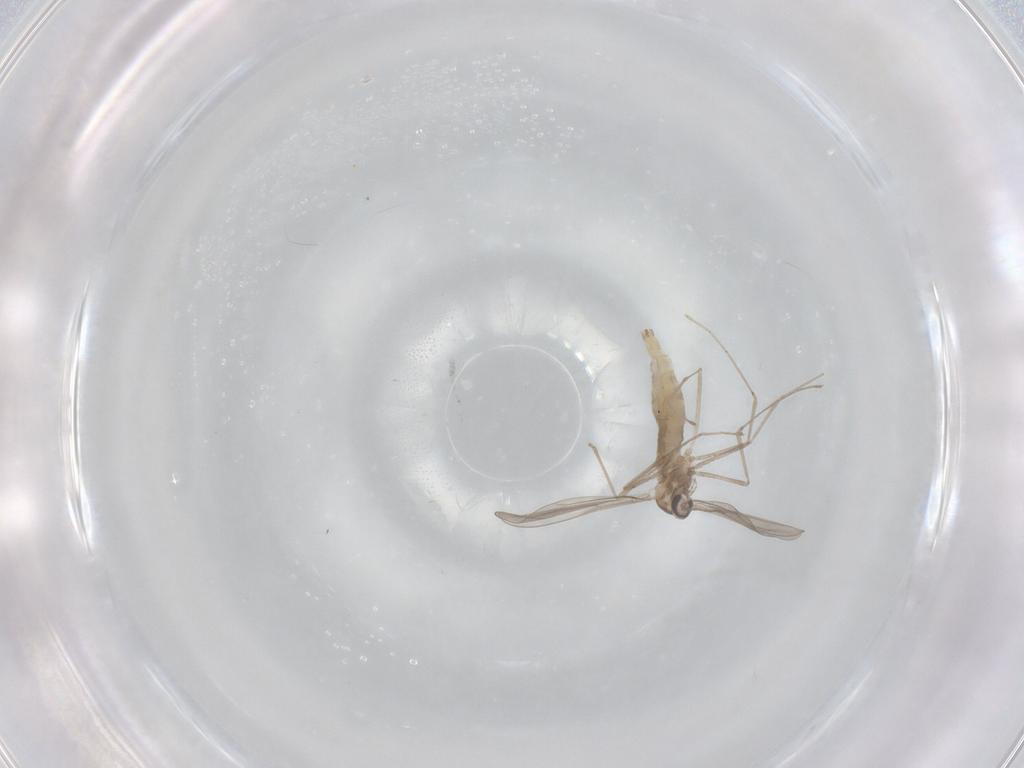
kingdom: Animalia
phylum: Arthropoda
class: Insecta
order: Diptera
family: Cecidomyiidae
